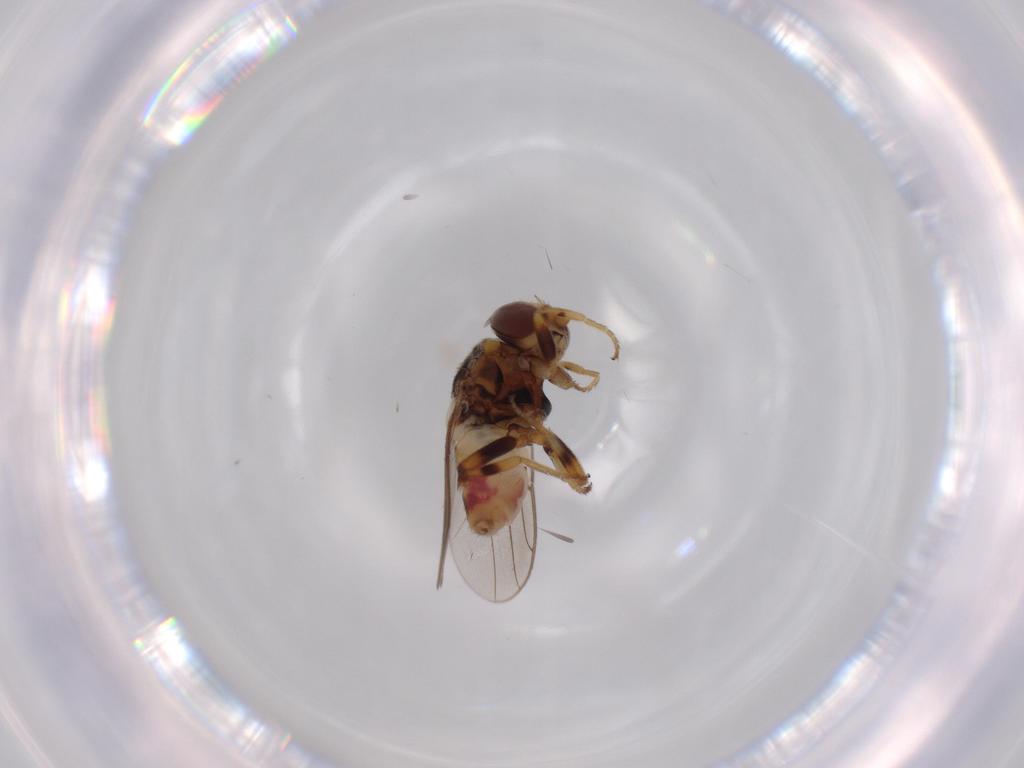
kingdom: Animalia
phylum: Arthropoda
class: Insecta
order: Diptera
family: Chloropidae
